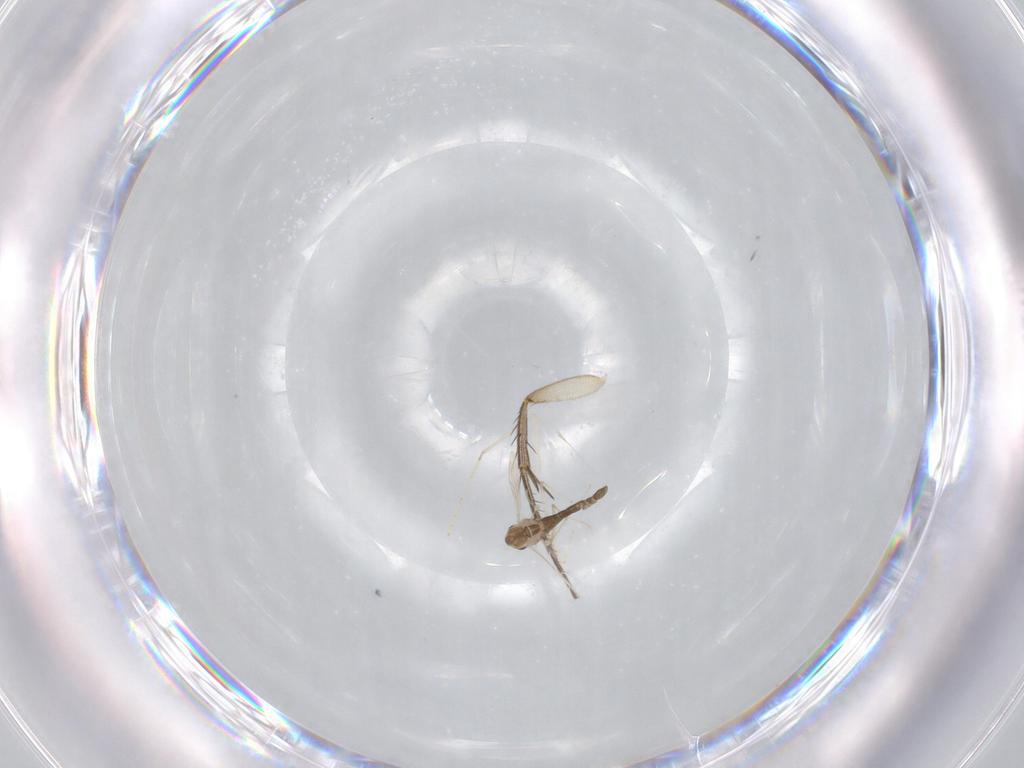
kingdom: Animalia
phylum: Arthropoda
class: Insecta
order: Diptera
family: Chironomidae
